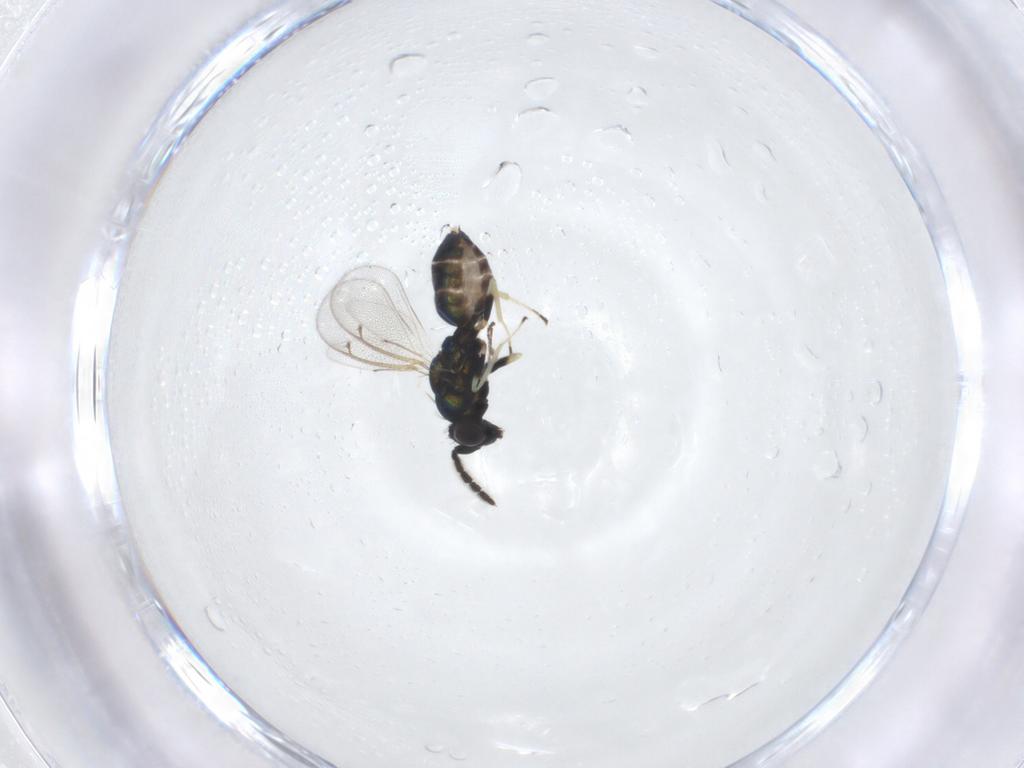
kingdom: Animalia
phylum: Arthropoda
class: Insecta
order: Hymenoptera
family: Eulophidae
